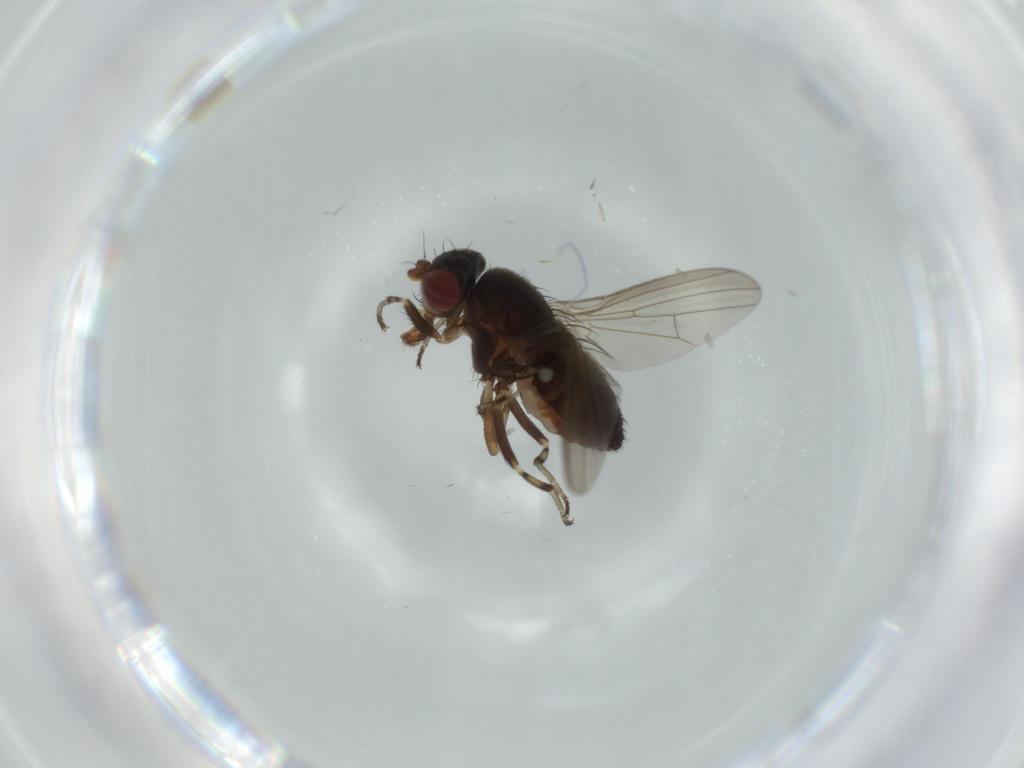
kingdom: Animalia
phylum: Arthropoda
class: Insecta
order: Diptera
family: Heleomyzidae
